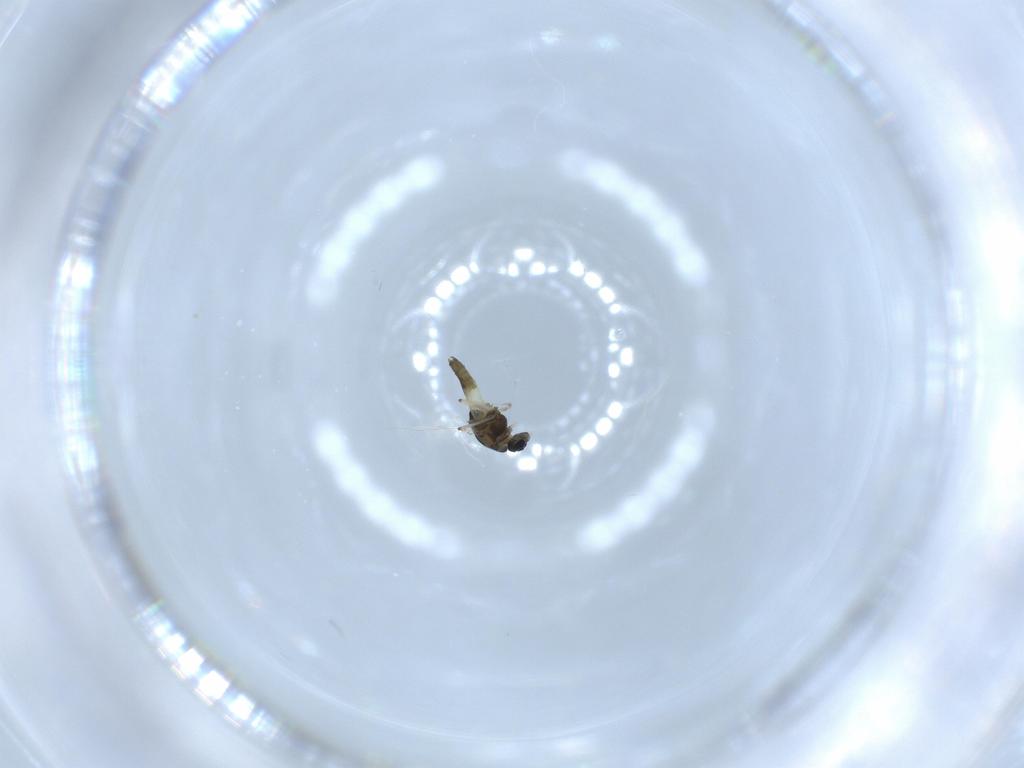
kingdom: Animalia
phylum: Arthropoda
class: Insecta
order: Diptera
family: Chironomidae
